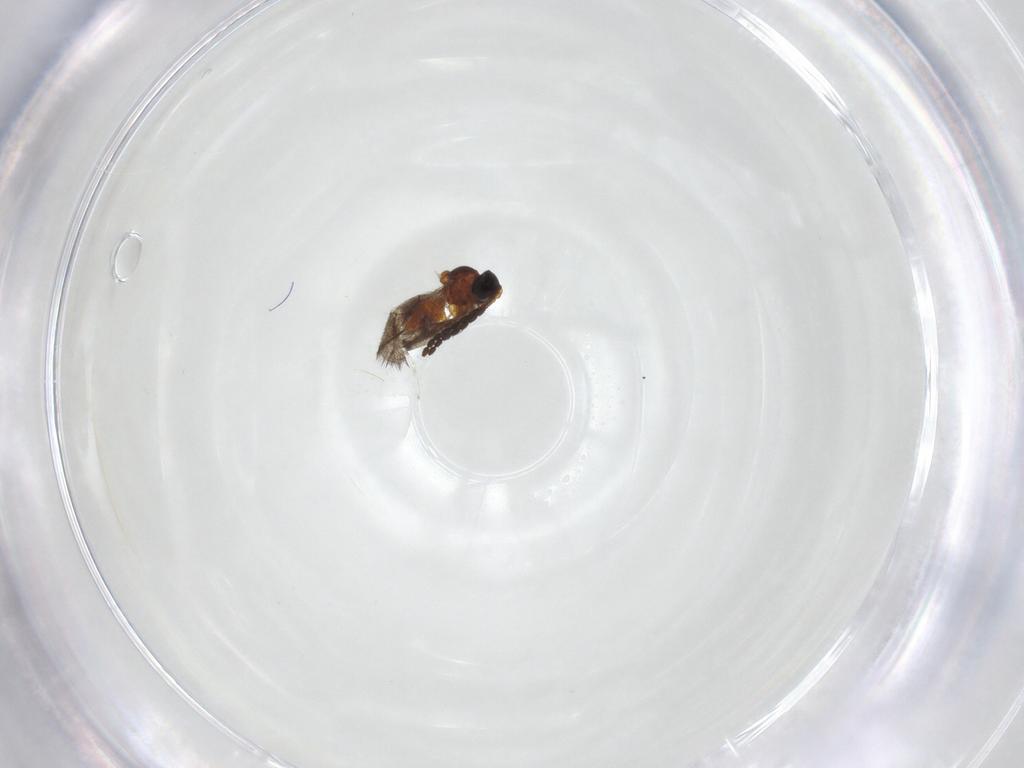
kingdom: Animalia
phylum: Arthropoda
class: Insecta
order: Hymenoptera
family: Figitidae
